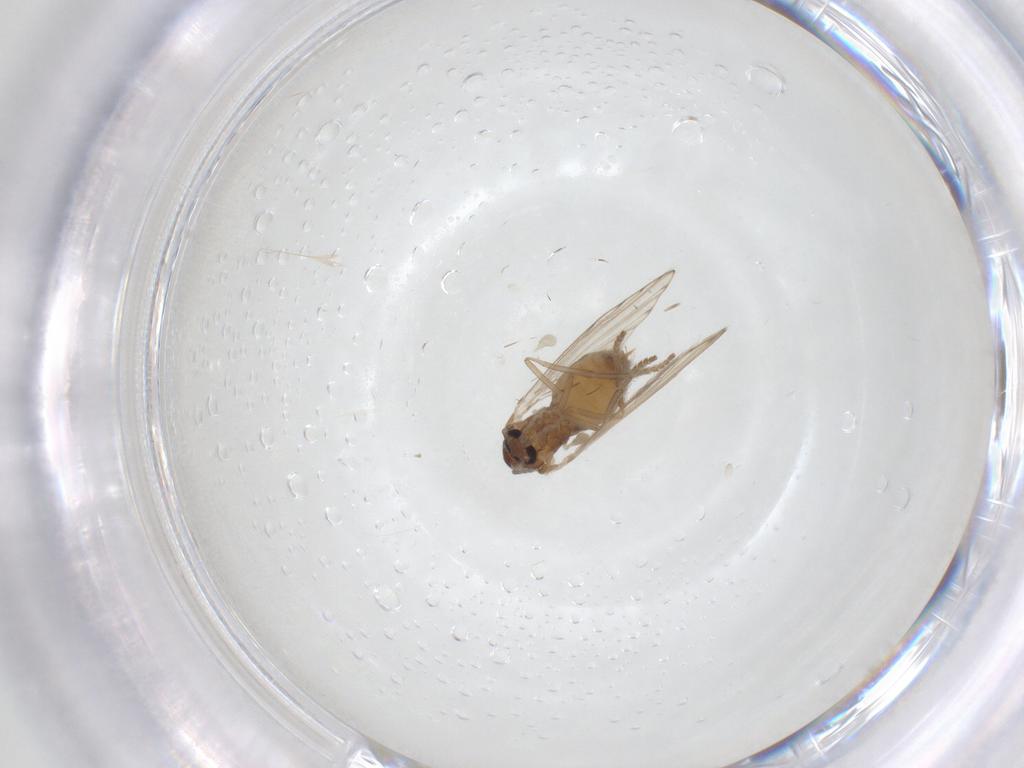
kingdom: Animalia
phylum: Arthropoda
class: Insecta
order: Diptera
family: Psychodidae
